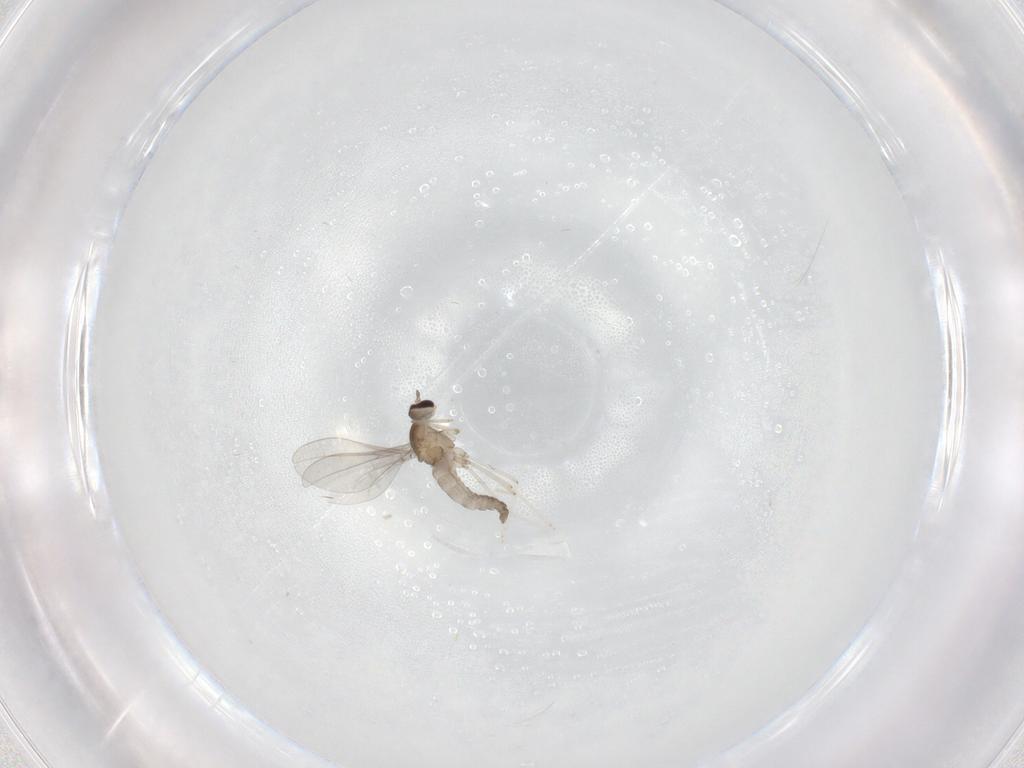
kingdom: Animalia
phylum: Arthropoda
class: Insecta
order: Diptera
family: Cecidomyiidae
